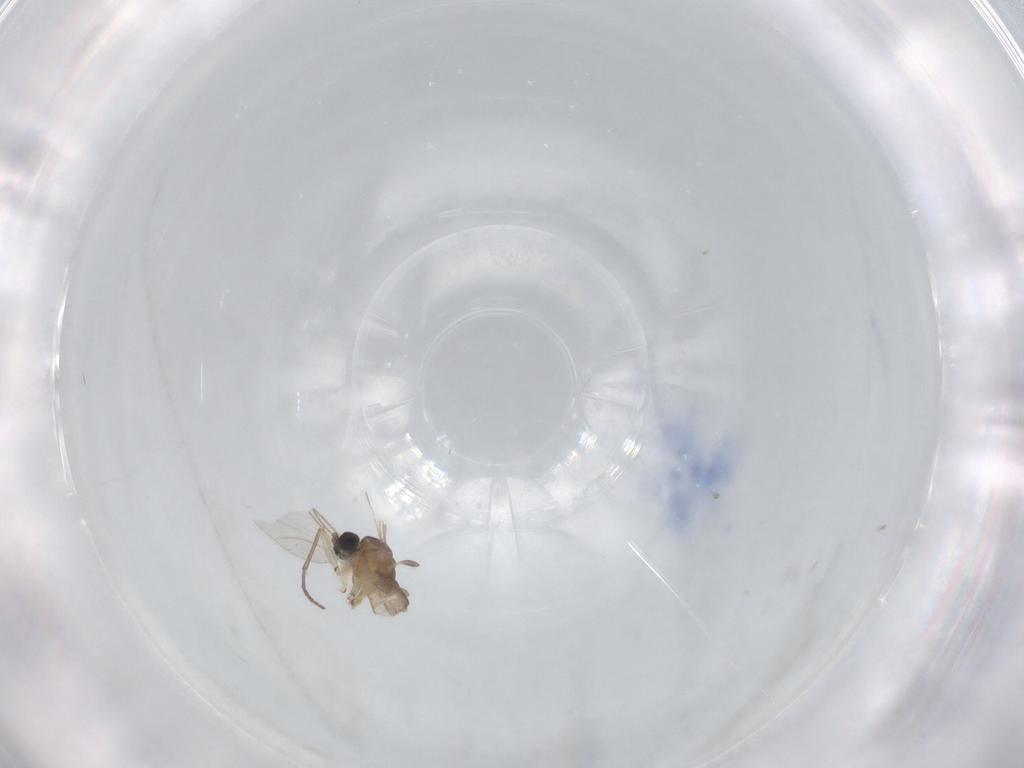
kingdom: Animalia
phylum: Arthropoda
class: Insecta
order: Diptera
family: Sciaridae
